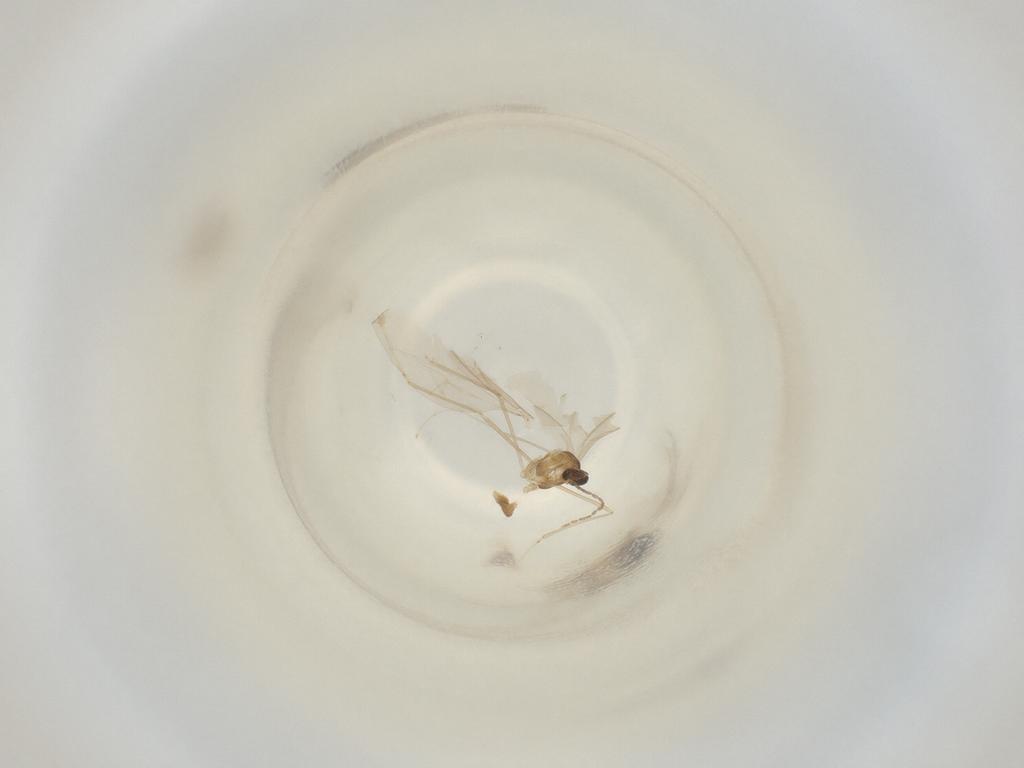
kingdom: Animalia
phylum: Arthropoda
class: Insecta
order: Diptera
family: Cecidomyiidae
